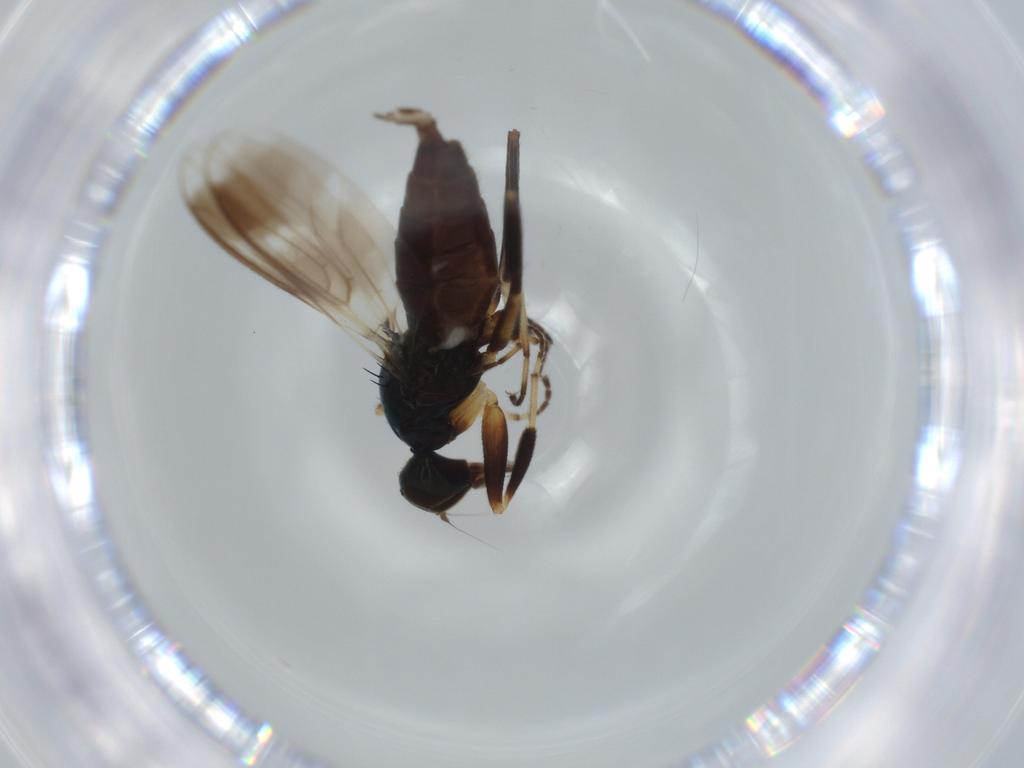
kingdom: Animalia
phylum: Arthropoda
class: Insecta
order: Diptera
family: Hybotidae
